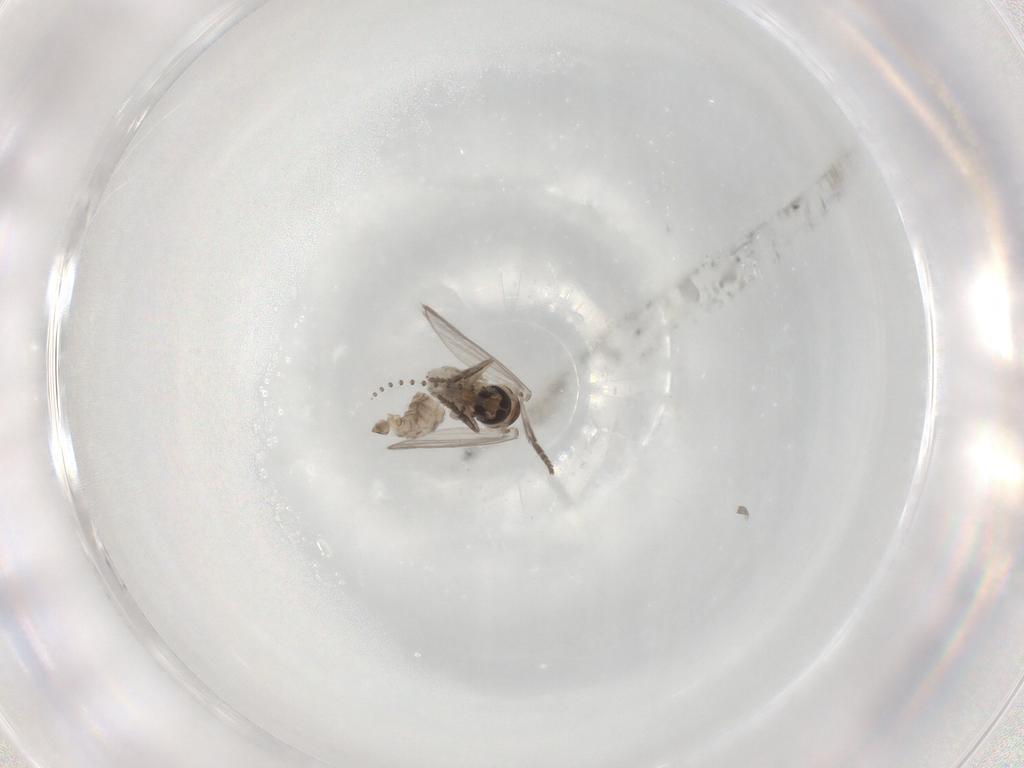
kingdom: Animalia
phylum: Arthropoda
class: Insecta
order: Diptera
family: Psychodidae
